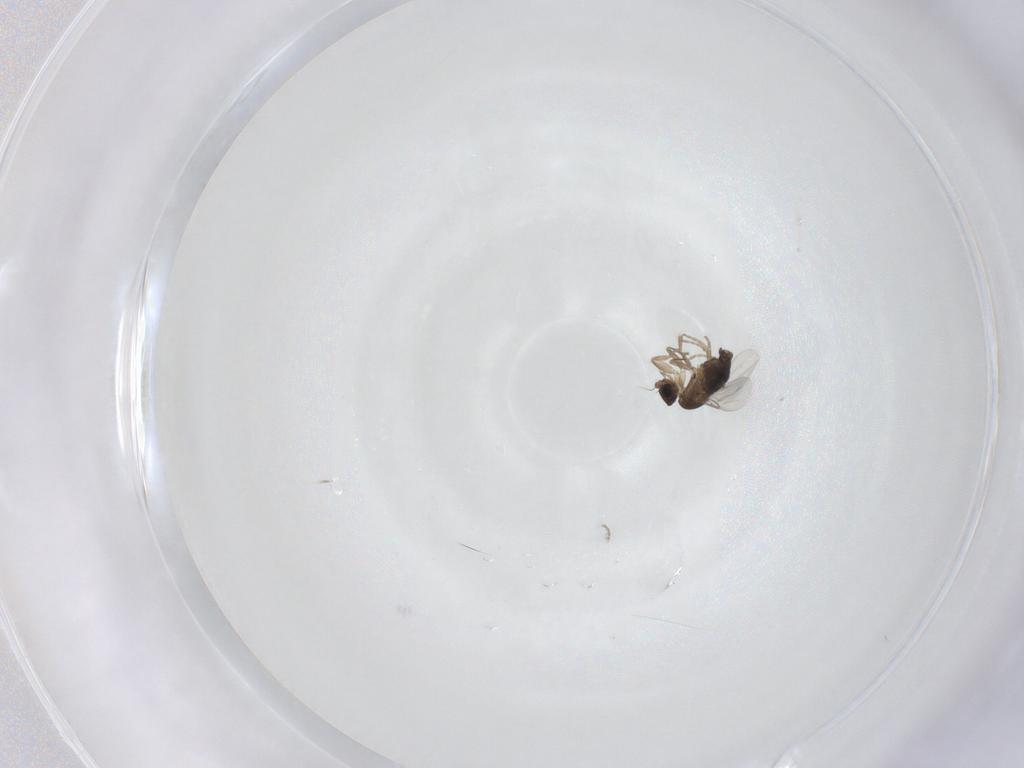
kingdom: Animalia
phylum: Arthropoda
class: Insecta
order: Diptera
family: Phoridae
